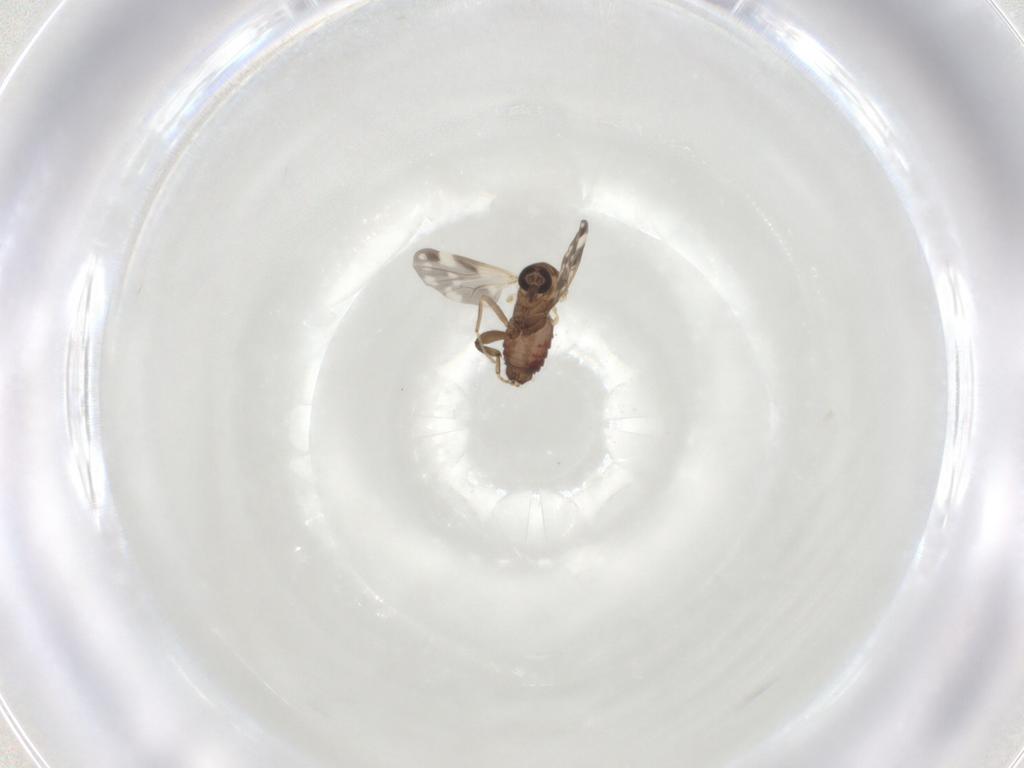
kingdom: Animalia
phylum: Arthropoda
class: Insecta
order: Diptera
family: Ceratopogonidae
